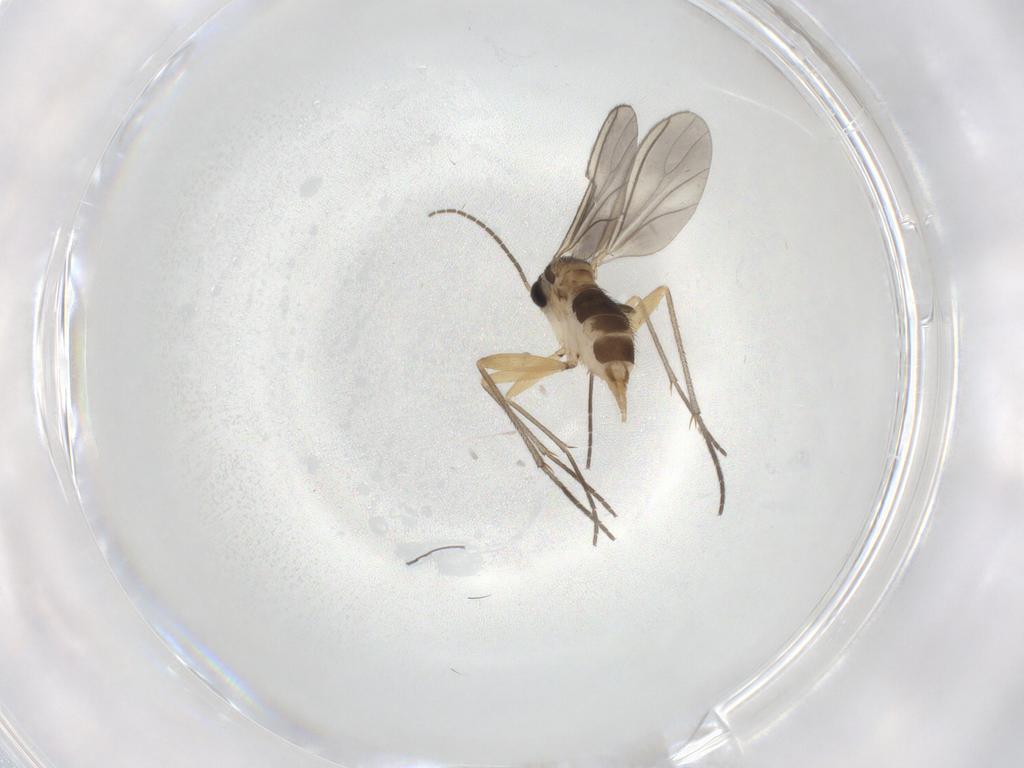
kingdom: Animalia
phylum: Arthropoda
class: Insecta
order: Diptera
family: Sciaridae
